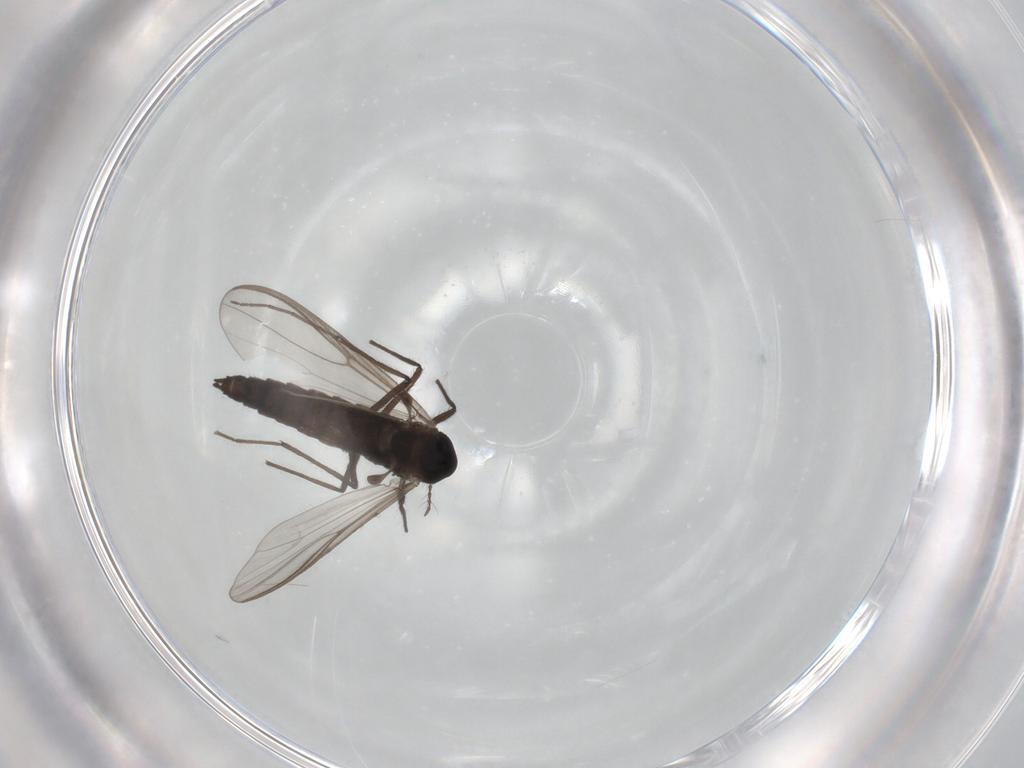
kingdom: Animalia
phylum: Arthropoda
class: Insecta
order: Diptera
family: Chironomidae
